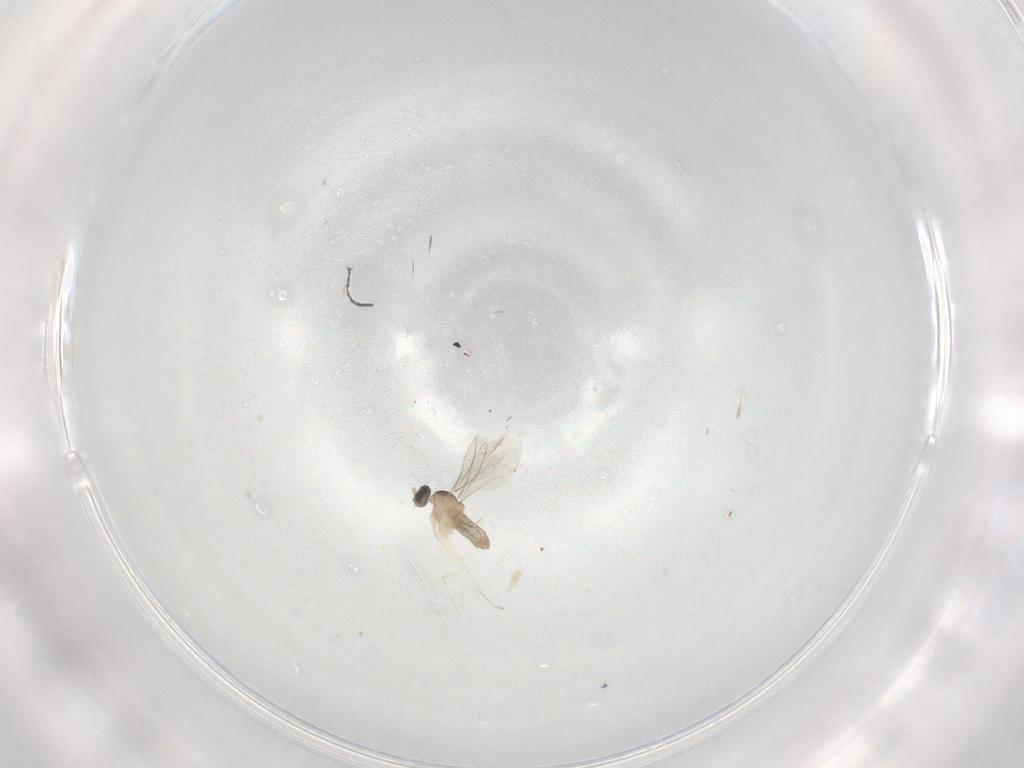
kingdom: Animalia
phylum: Arthropoda
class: Insecta
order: Diptera
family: Cecidomyiidae
